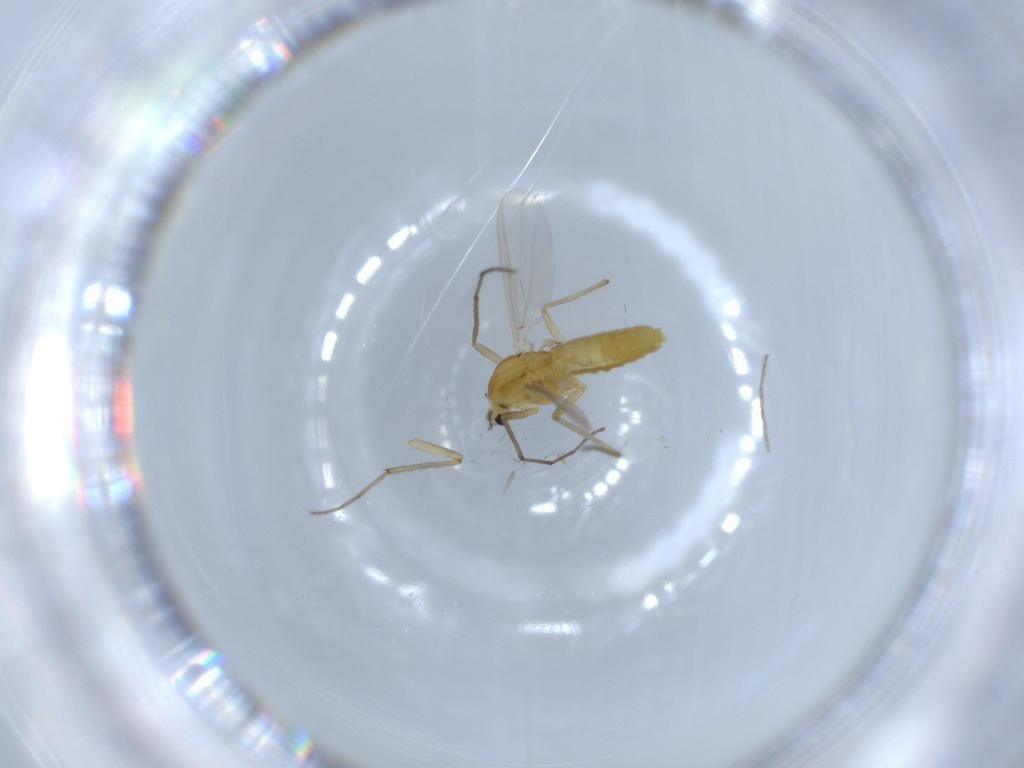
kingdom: Animalia
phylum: Arthropoda
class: Insecta
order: Diptera
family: Chironomidae
